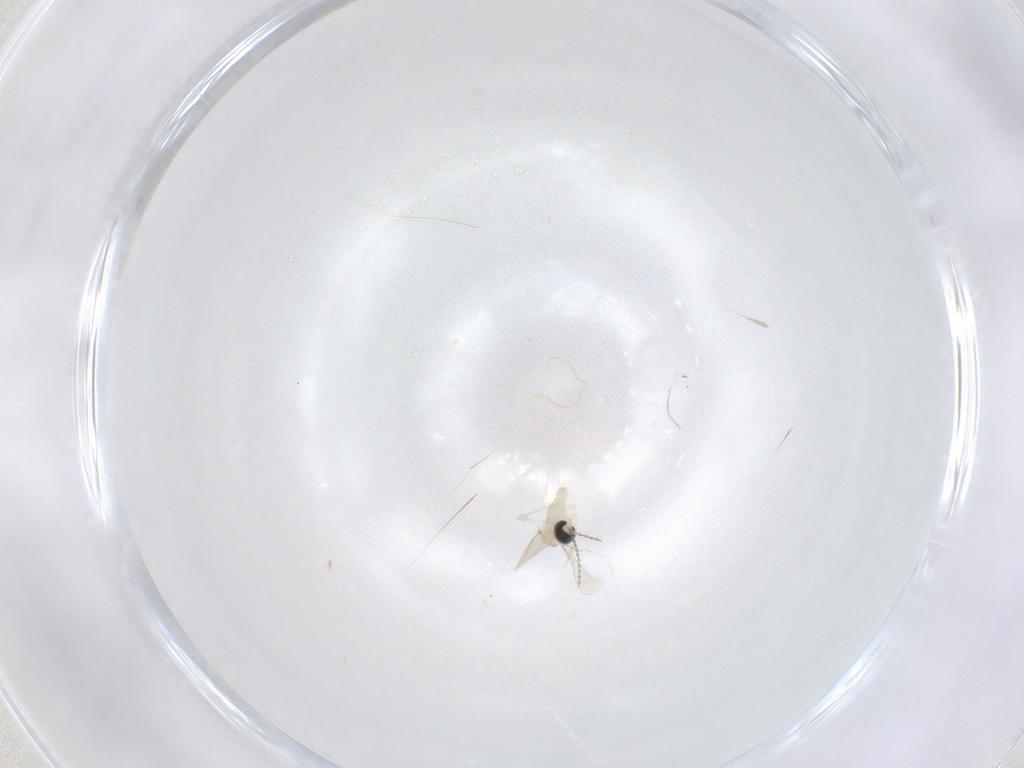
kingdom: Animalia
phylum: Arthropoda
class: Insecta
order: Diptera
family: Cecidomyiidae
